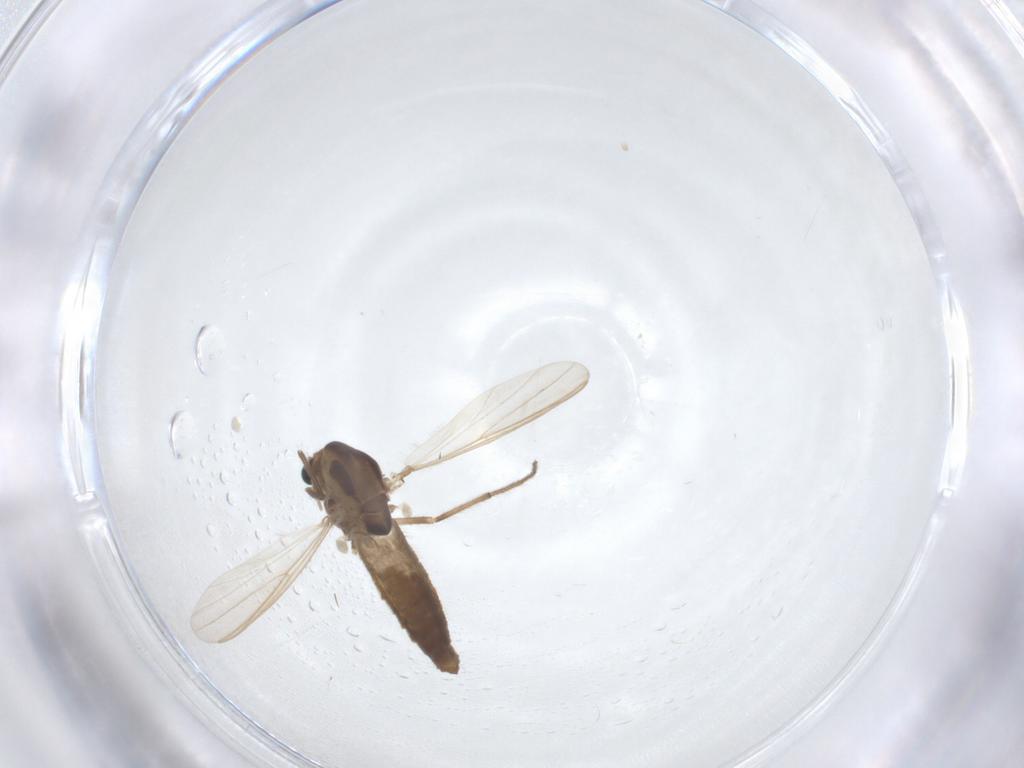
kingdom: Animalia
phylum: Arthropoda
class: Insecta
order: Diptera
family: Chironomidae
